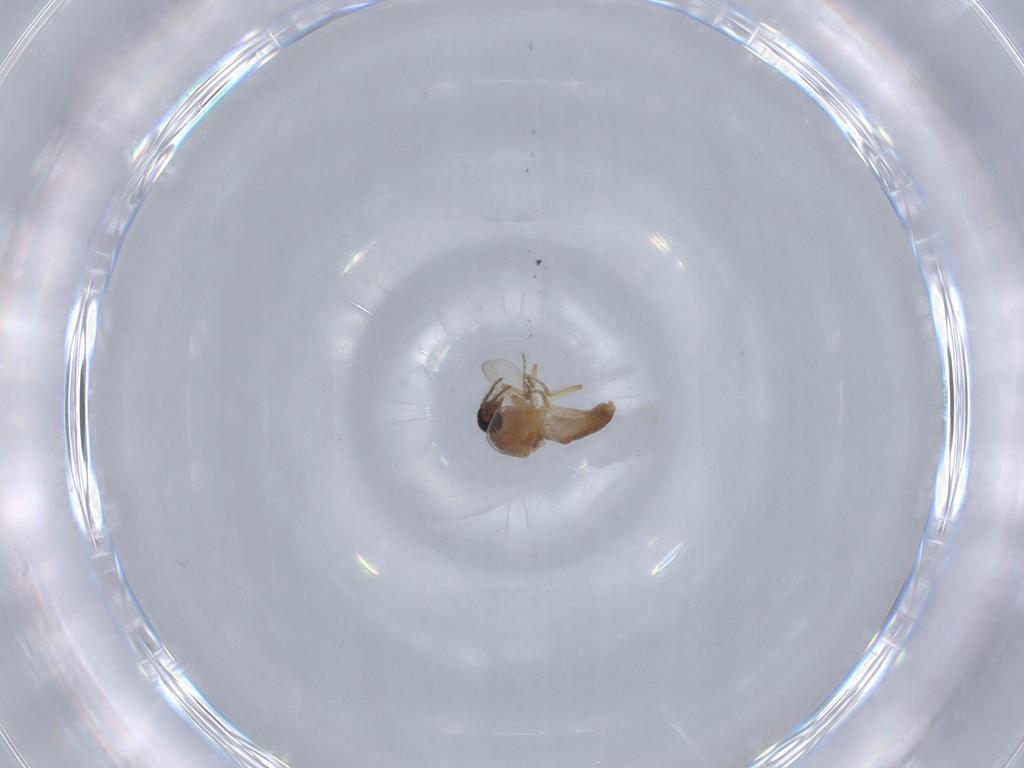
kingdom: Animalia
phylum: Arthropoda
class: Insecta
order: Diptera
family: Ceratopogonidae
